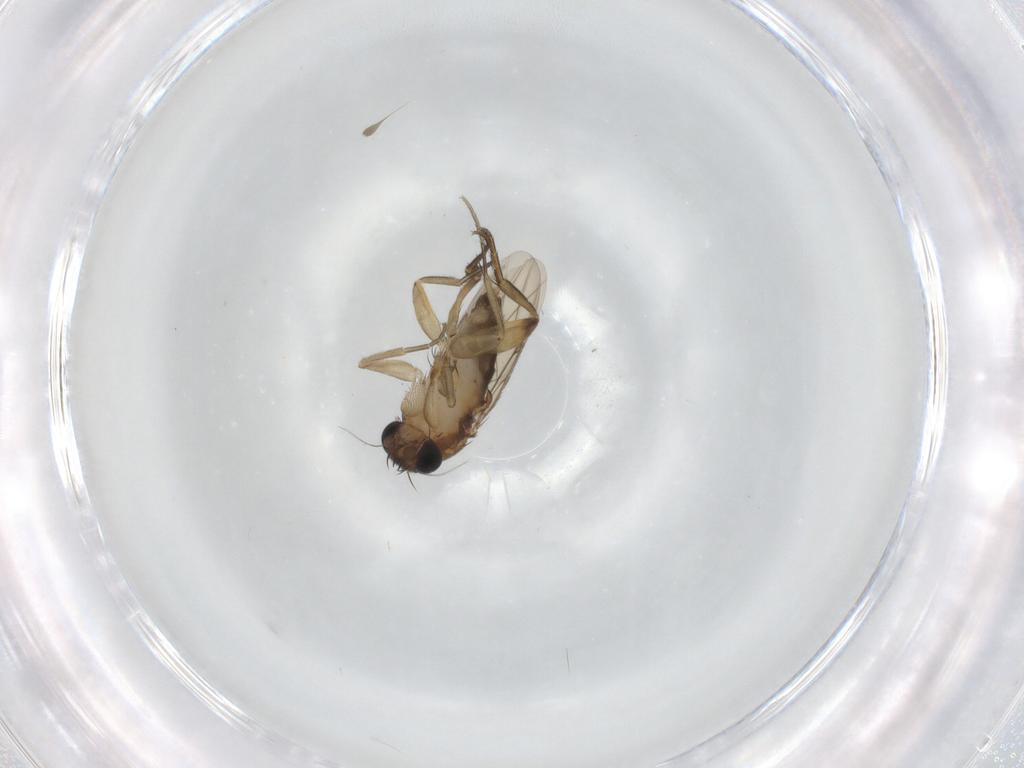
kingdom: Animalia
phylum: Arthropoda
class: Insecta
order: Diptera
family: Phoridae
